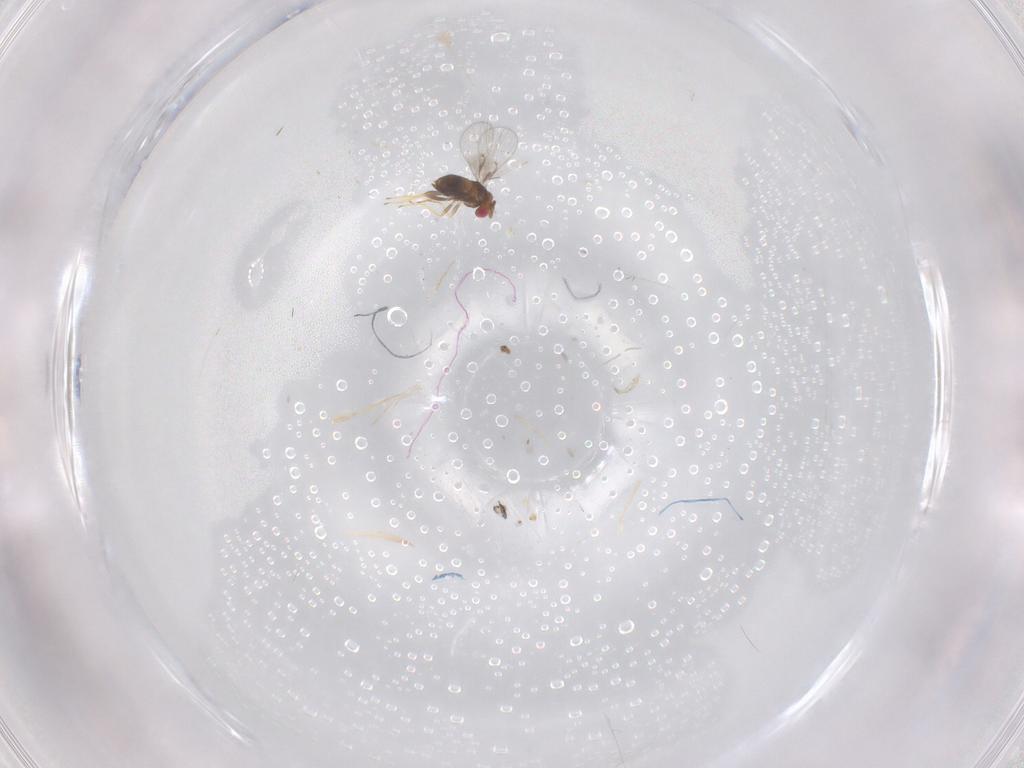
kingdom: Animalia
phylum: Arthropoda
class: Insecta
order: Hymenoptera
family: Trichogrammatidae
